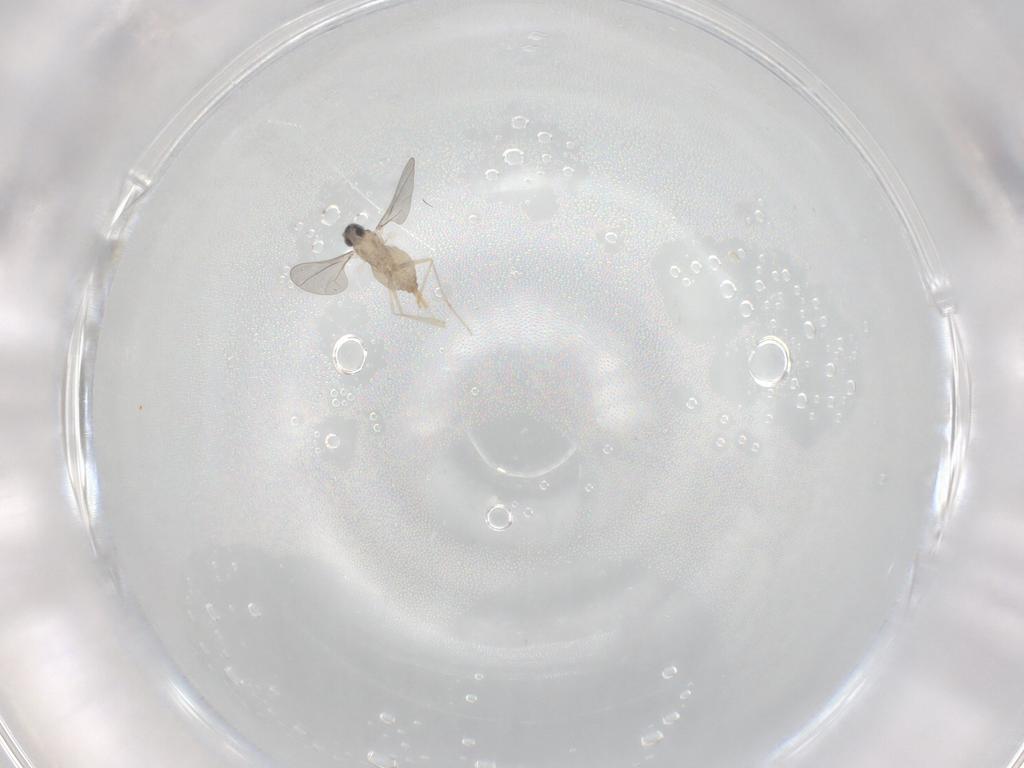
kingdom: Animalia
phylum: Arthropoda
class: Insecta
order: Diptera
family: Cecidomyiidae
